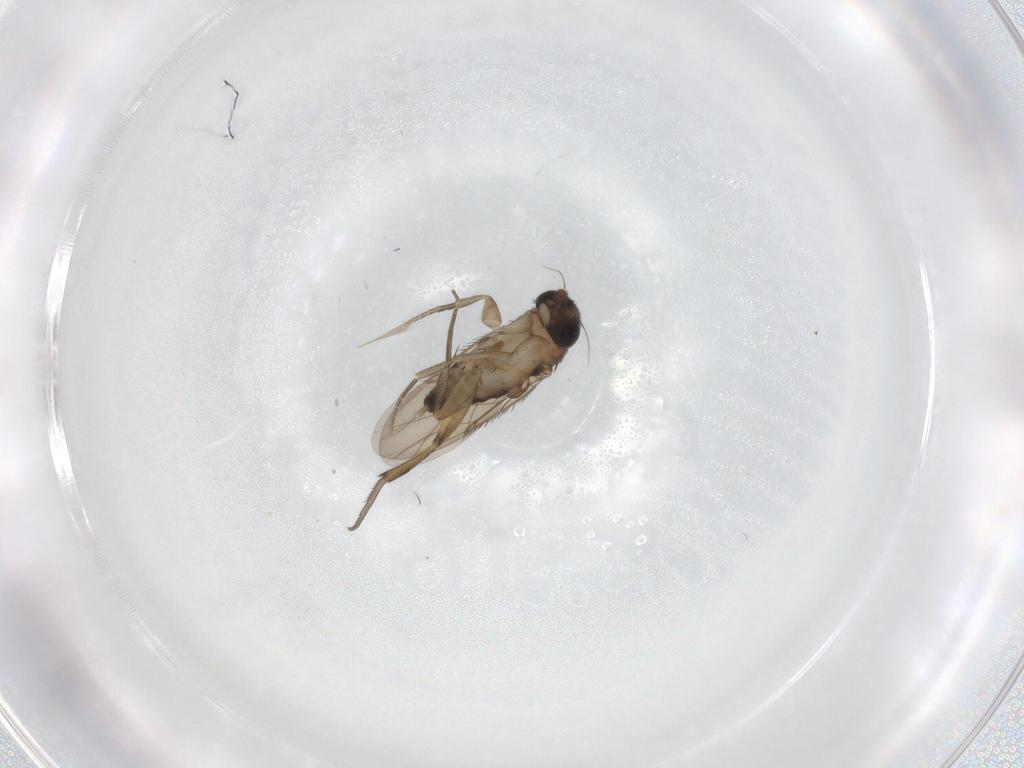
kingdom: Animalia
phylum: Arthropoda
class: Insecta
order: Diptera
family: Phoridae
